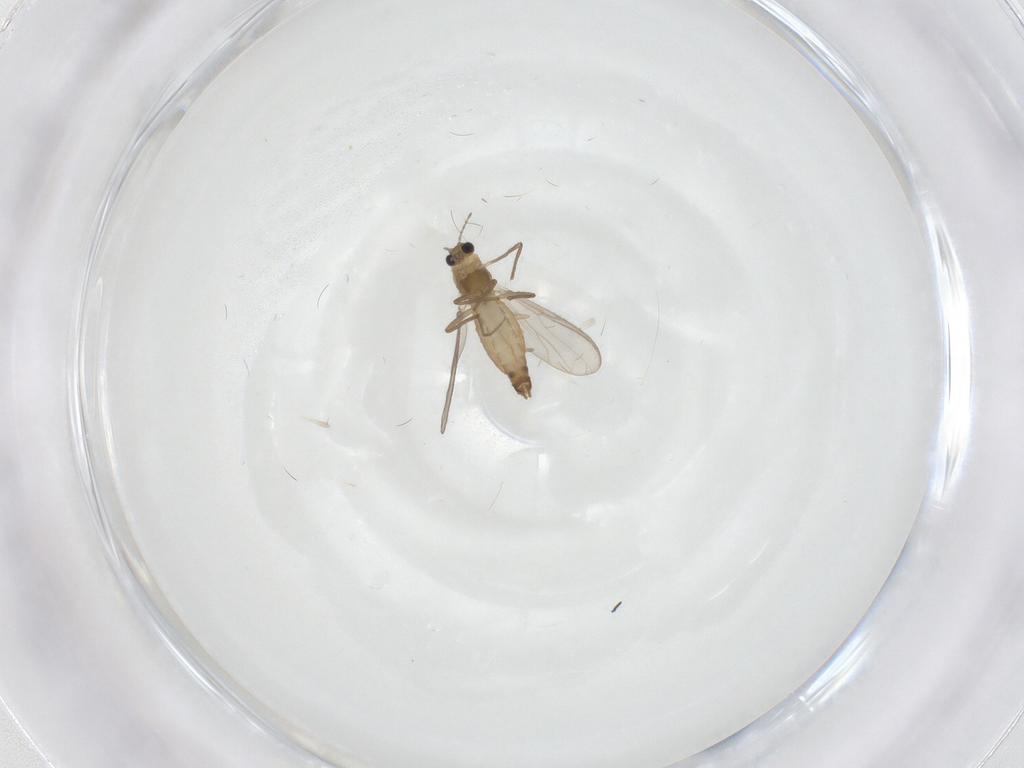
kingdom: Animalia
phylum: Arthropoda
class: Insecta
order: Diptera
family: Chironomidae
